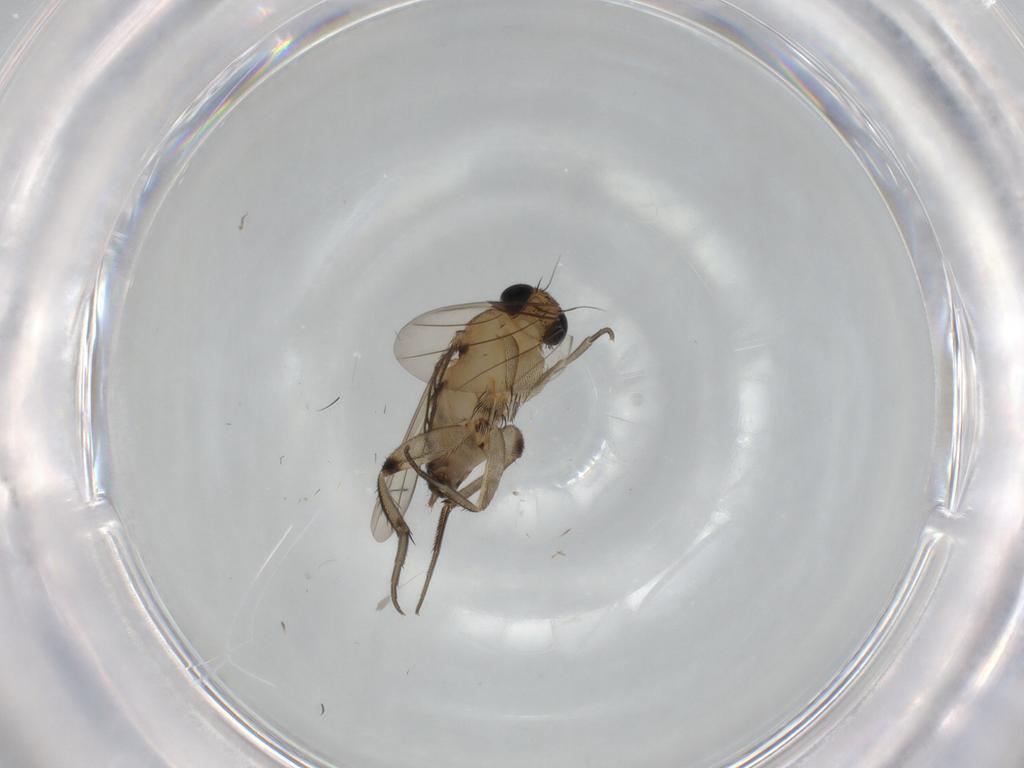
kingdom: Animalia
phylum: Arthropoda
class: Insecta
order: Diptera
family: Phoridae
